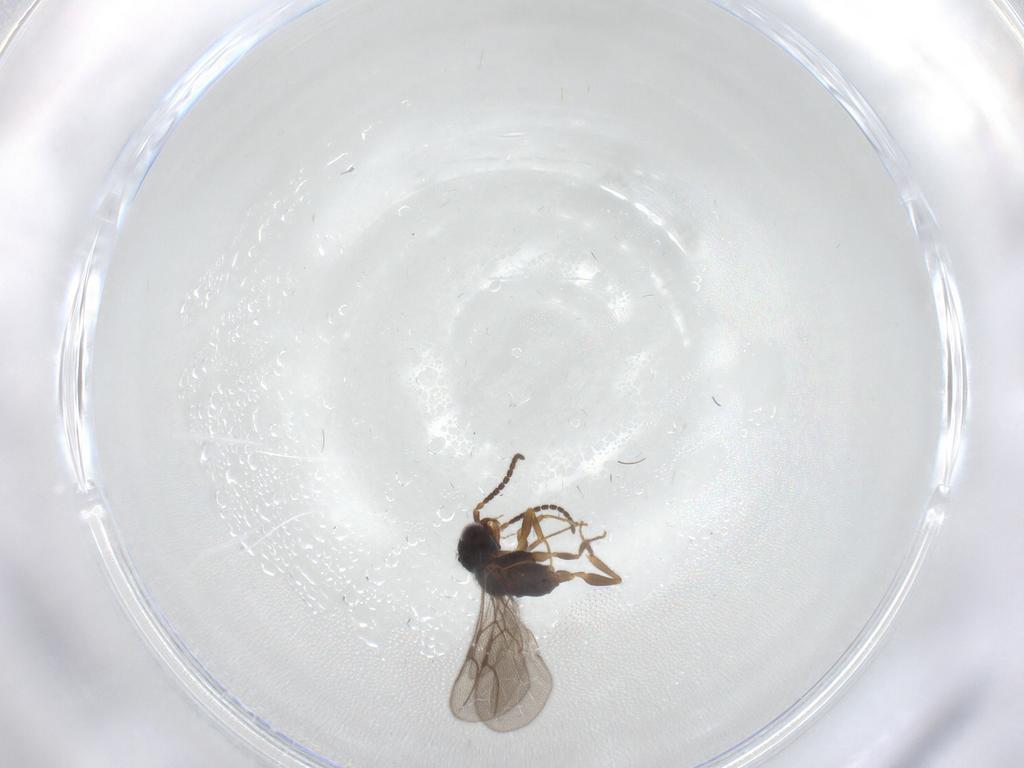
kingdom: Animalia
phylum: Arthropoda
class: Insecta
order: Hymenoptera
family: Bethylidae
